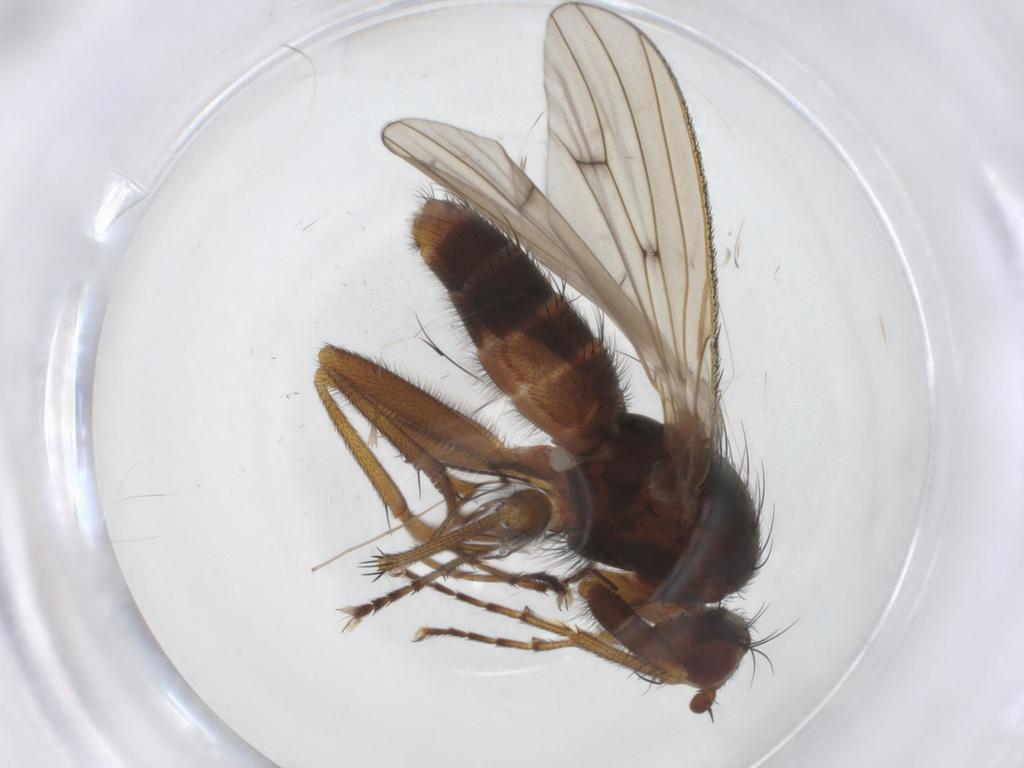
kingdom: Animalia
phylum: Arthropoda
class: Insecta
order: Diptera
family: Heleomyzidae
